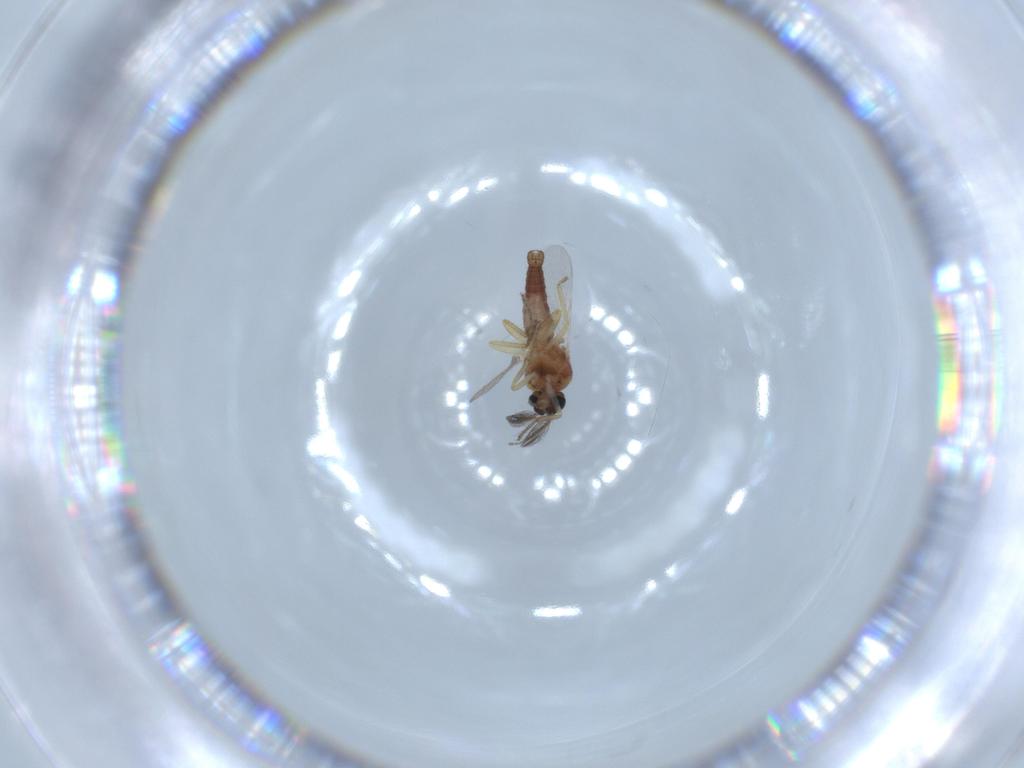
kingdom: Animalia
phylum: Arthropoda
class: Insecta
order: Diptera
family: Ceratopogonidae
